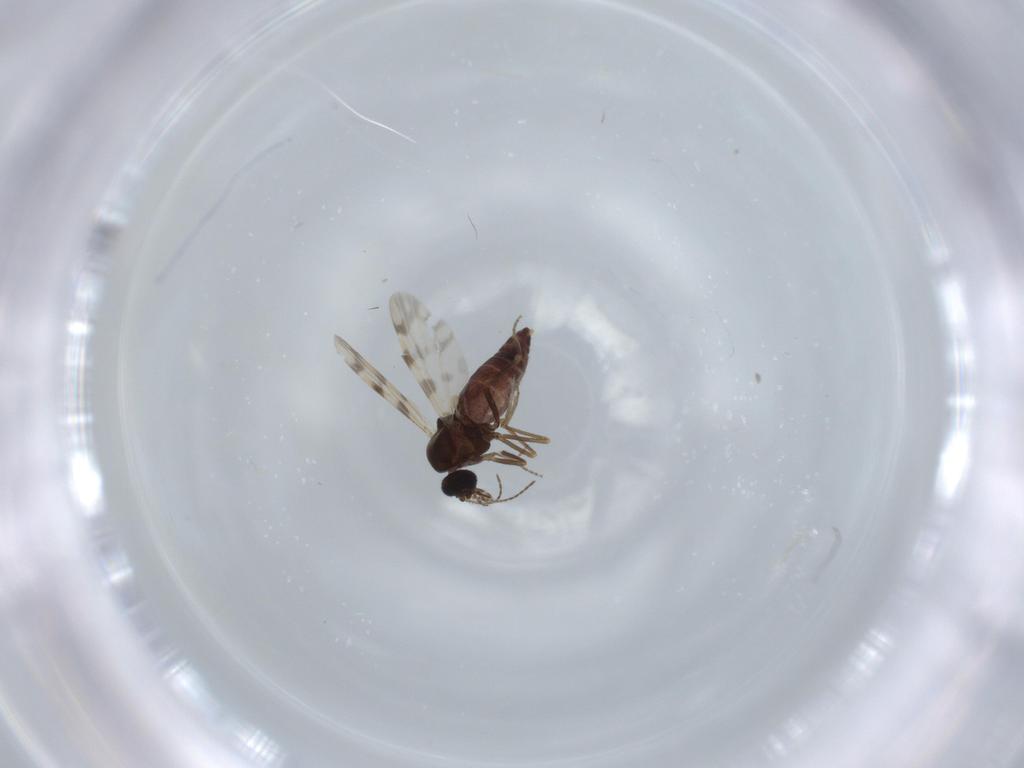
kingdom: Animalia
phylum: Arthropoda
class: Insecta
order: Diptera
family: Ceratopogonidae
